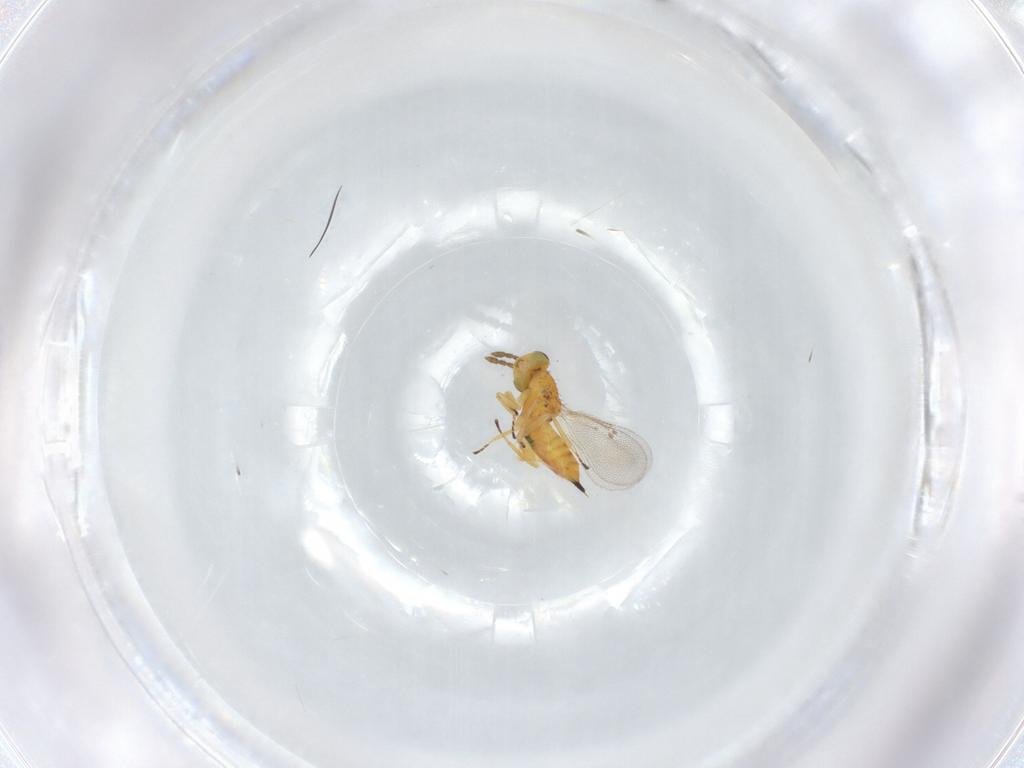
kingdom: Animalia
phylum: Arthropoda
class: Insecta
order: Hymenoptera
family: Eulophidae
